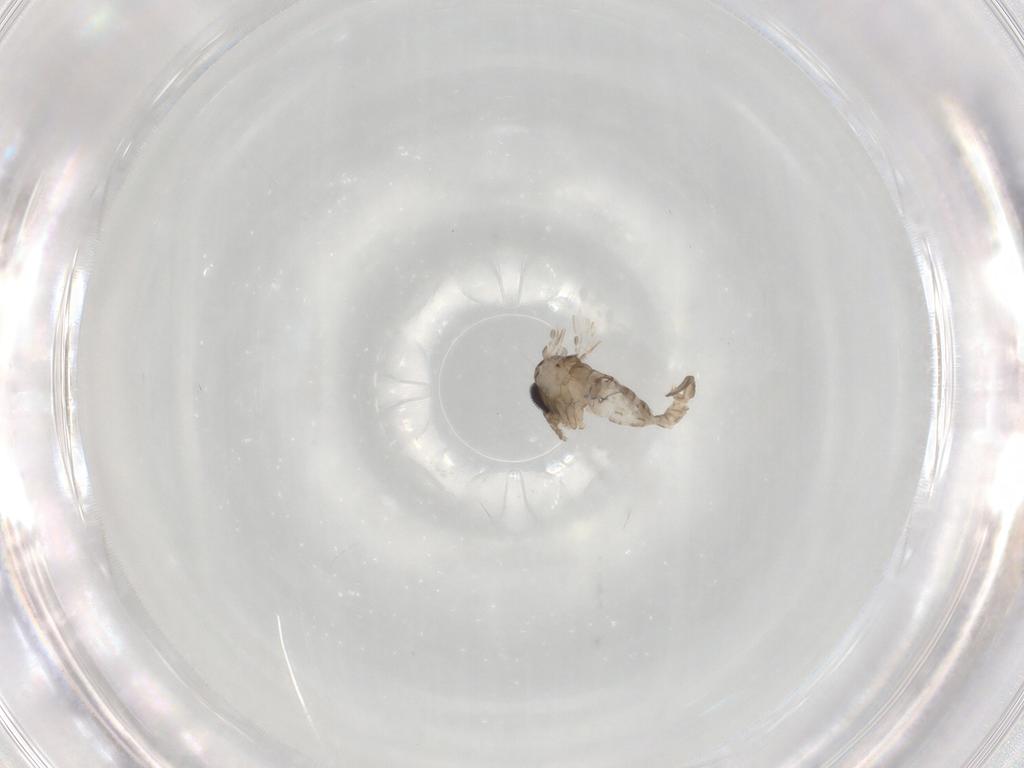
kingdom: Animalia
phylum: Arthropoda
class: Insecta
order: Diptera
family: Psychodidae
